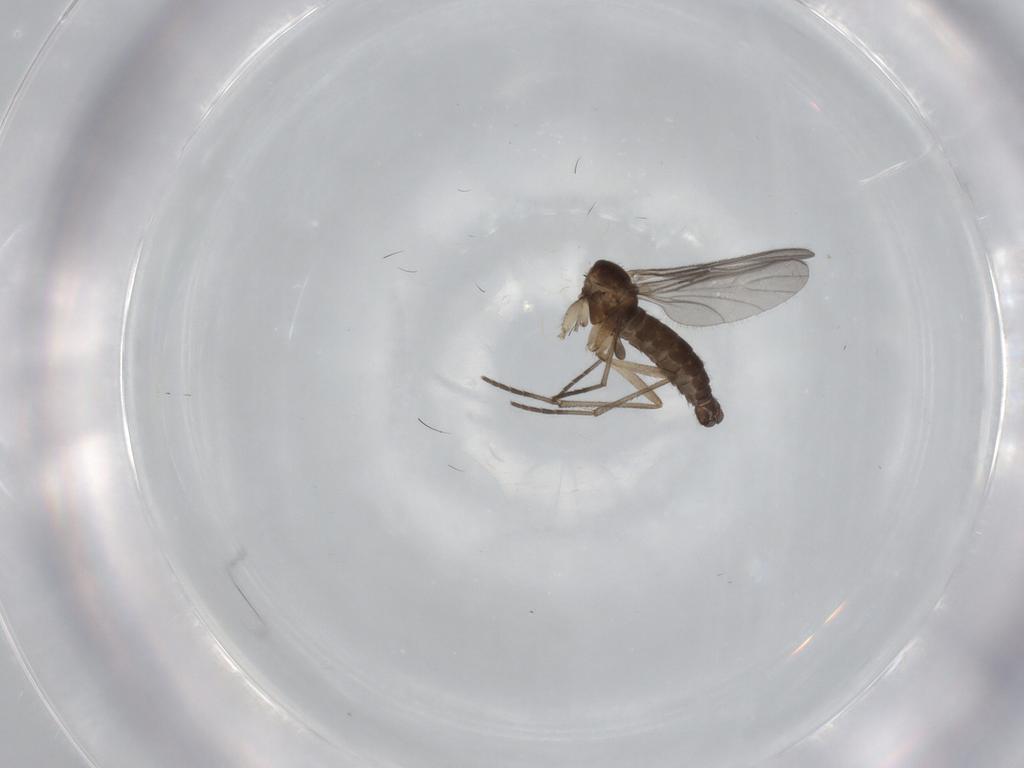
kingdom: Animalia
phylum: Arthropoda
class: Insecta
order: Diptera
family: Sciaridae
